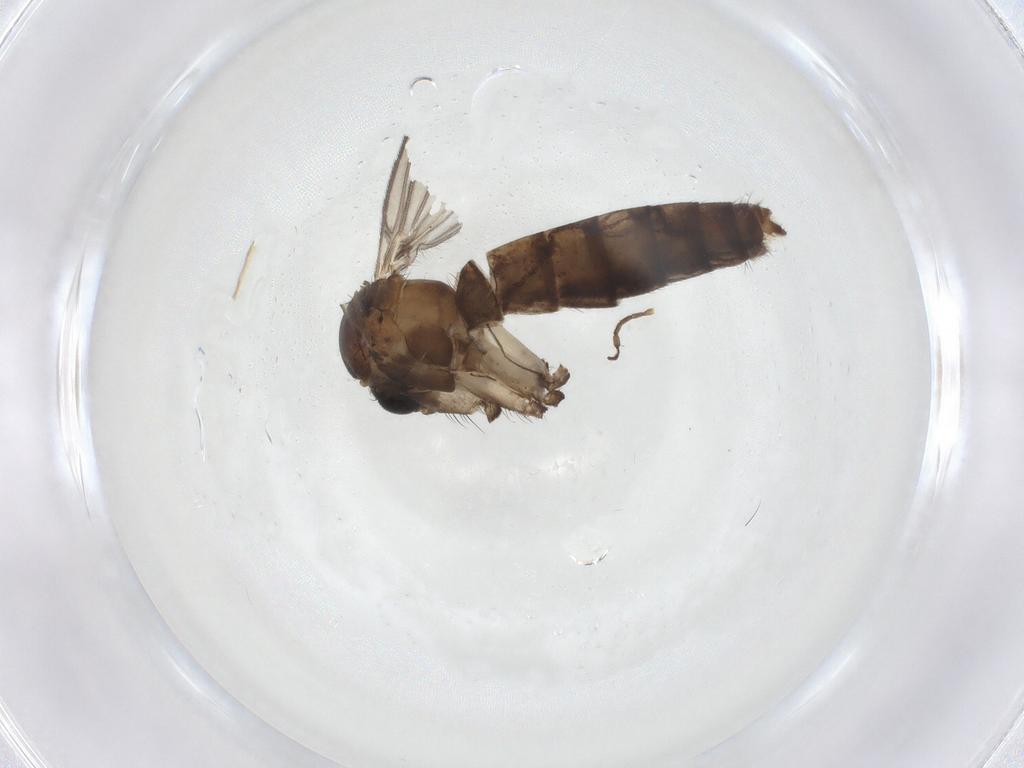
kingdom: Animalia
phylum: Arthropoda
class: Insecta
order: Diptera
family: Mycetophilidae
